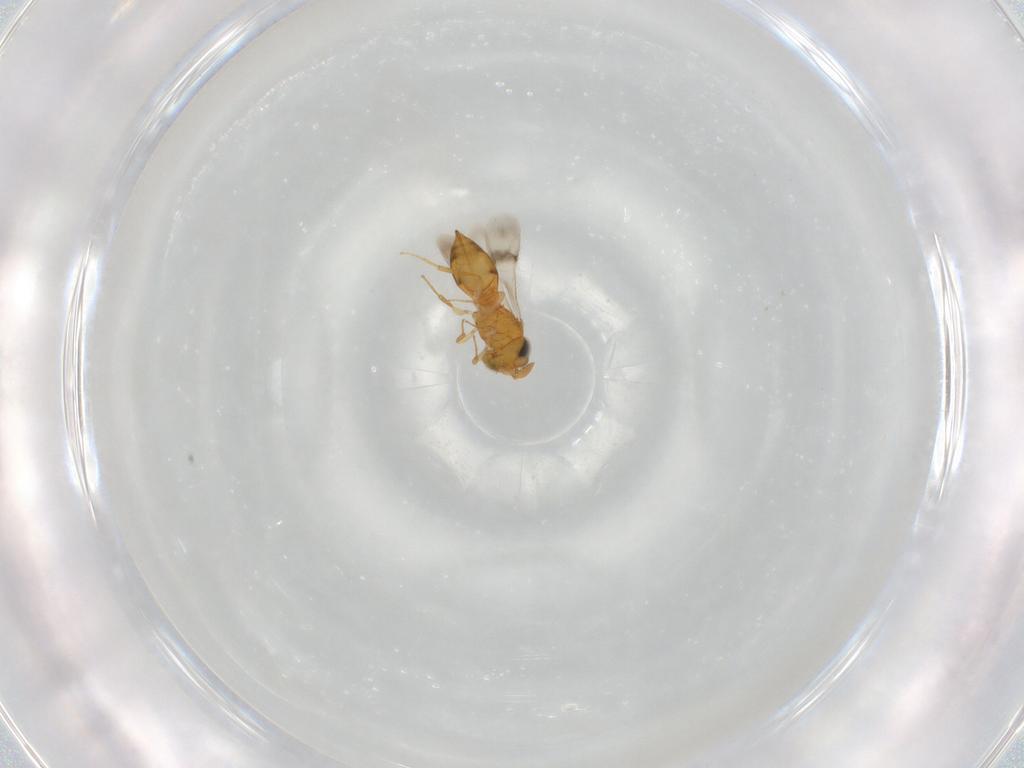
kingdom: Animalia
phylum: Arthropoda
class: Insecta
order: Hymenoptera
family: Scelionidae
